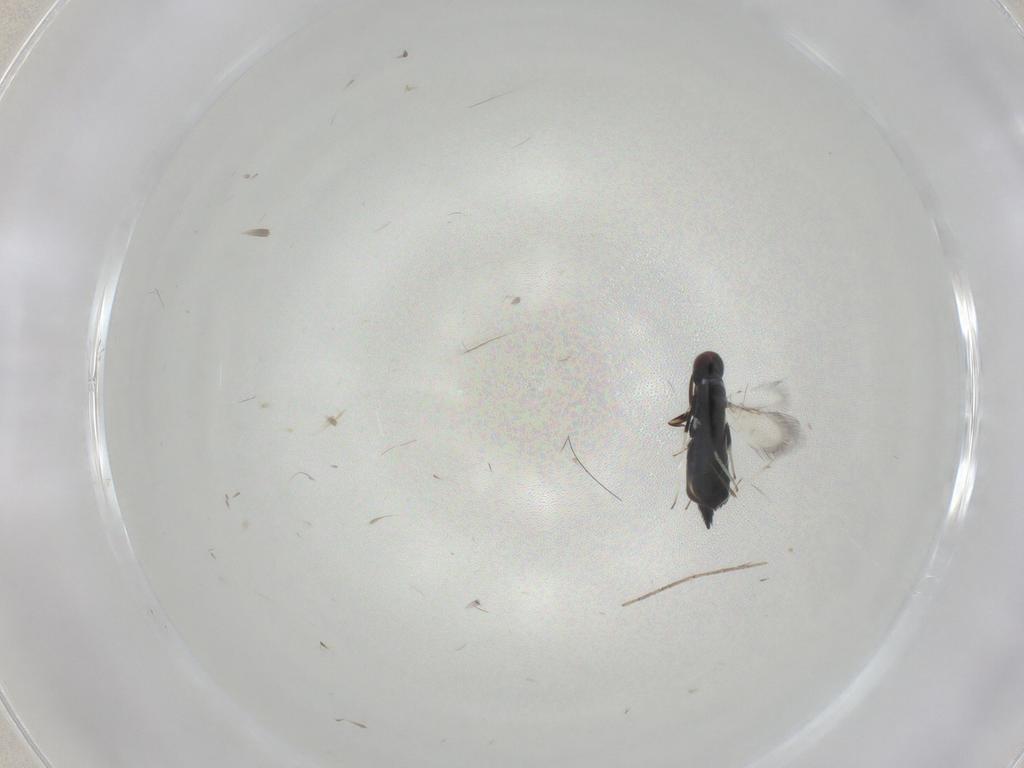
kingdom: Animalia
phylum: Arthropoda
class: Insecta
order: Hymenoptera
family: Signiphoridae
